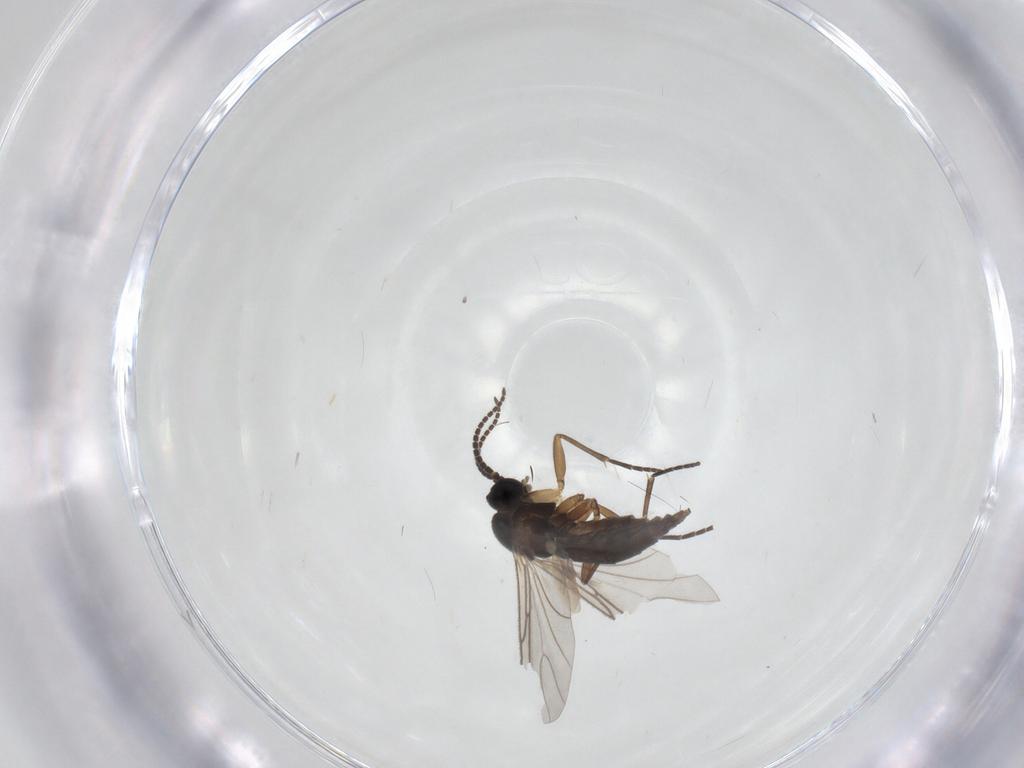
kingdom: Animalia
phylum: Arthropoda
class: Insecta
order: Diptera
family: Sciaridae
